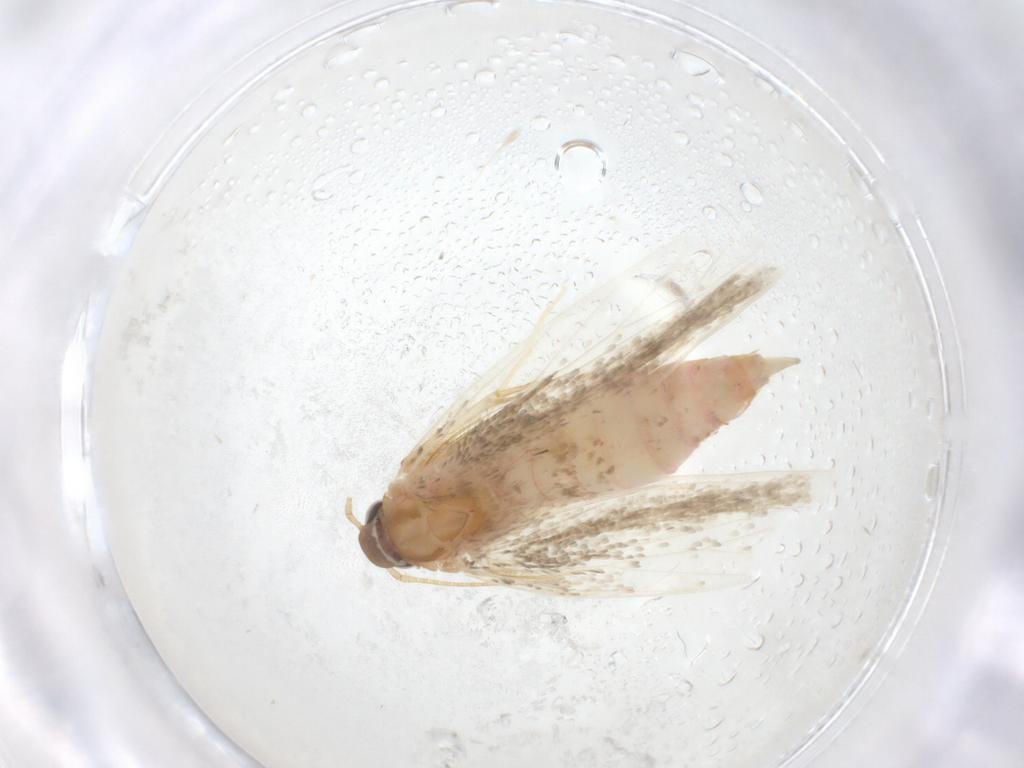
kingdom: Animalia
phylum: Arthropoda
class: Insecta
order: Lepidoptera
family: Crambidae
